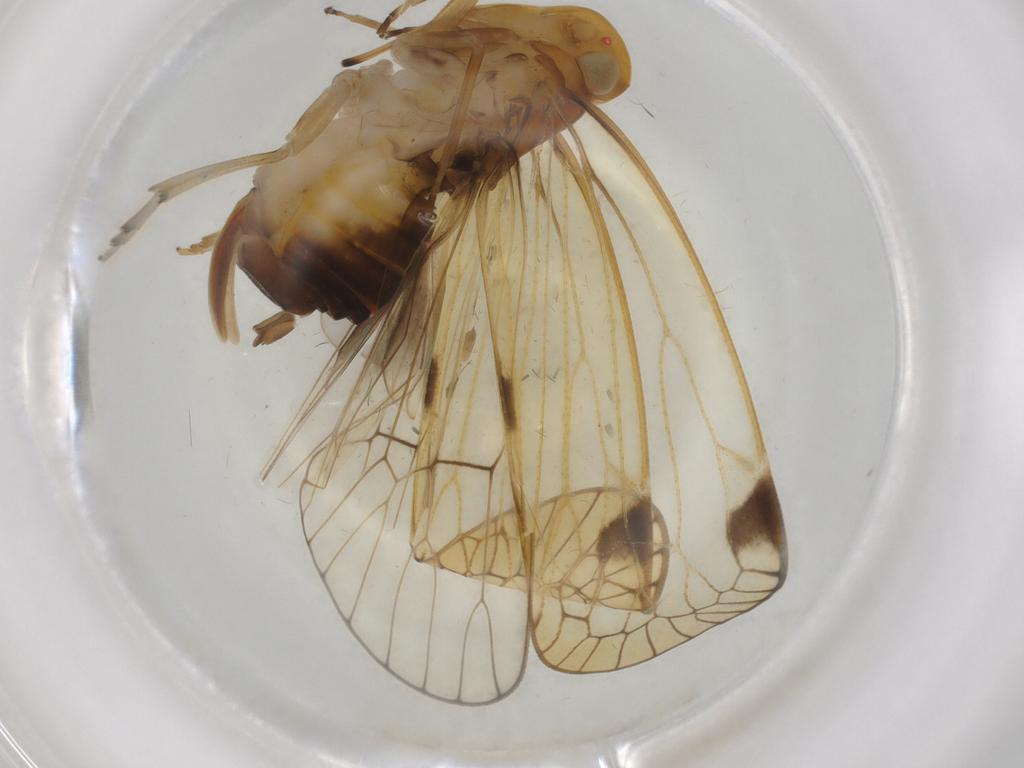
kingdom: Animalia
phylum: Arthropoda
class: Insecta
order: Hemiptera
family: Cixiidae
